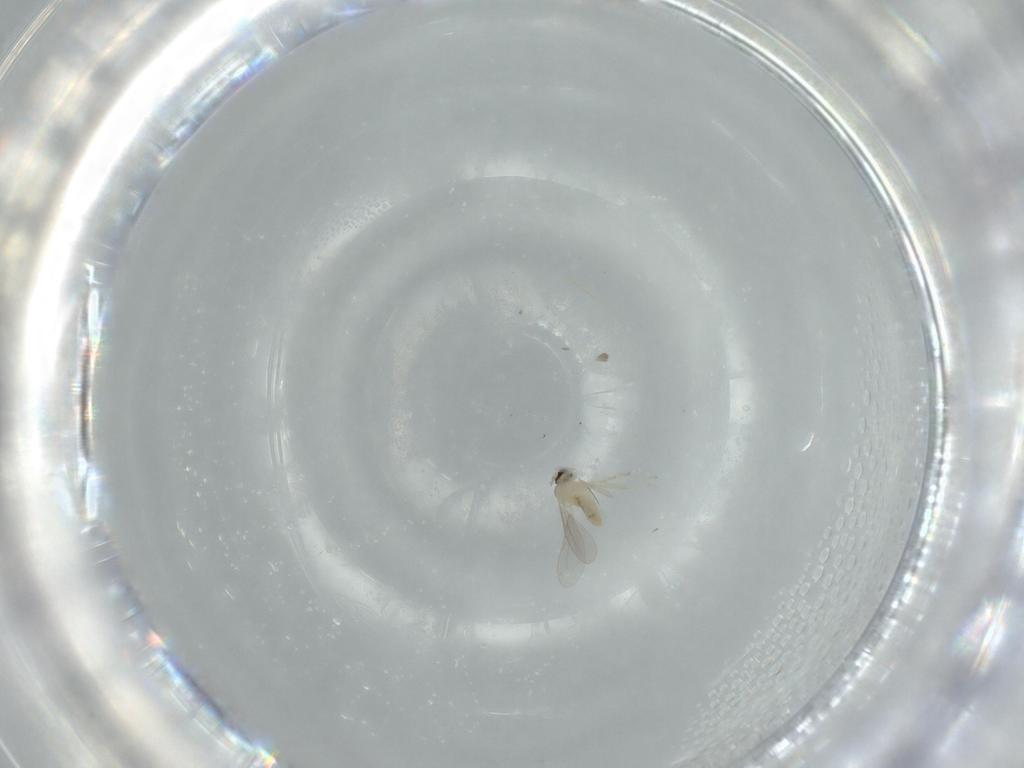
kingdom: Animalia
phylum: Arthropoda
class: Insecta
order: Diptera
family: Cecidomyiidae
